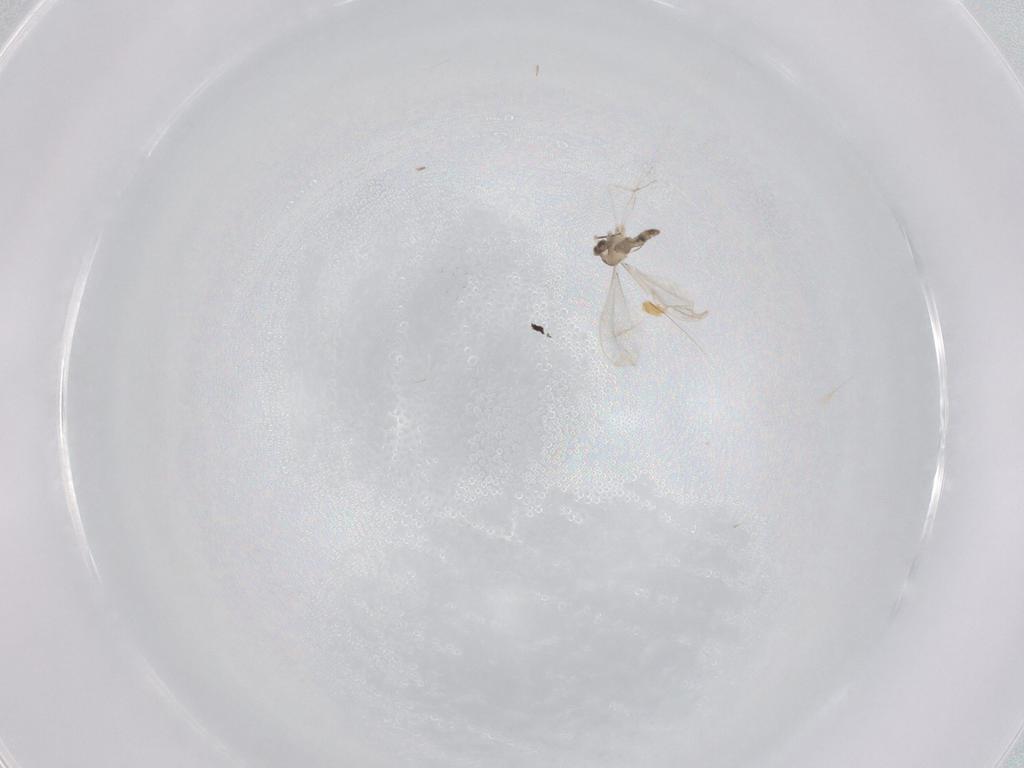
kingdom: Animalia
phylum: Arthropoda
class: Insecta
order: Diptera
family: Cecidomyiidae
